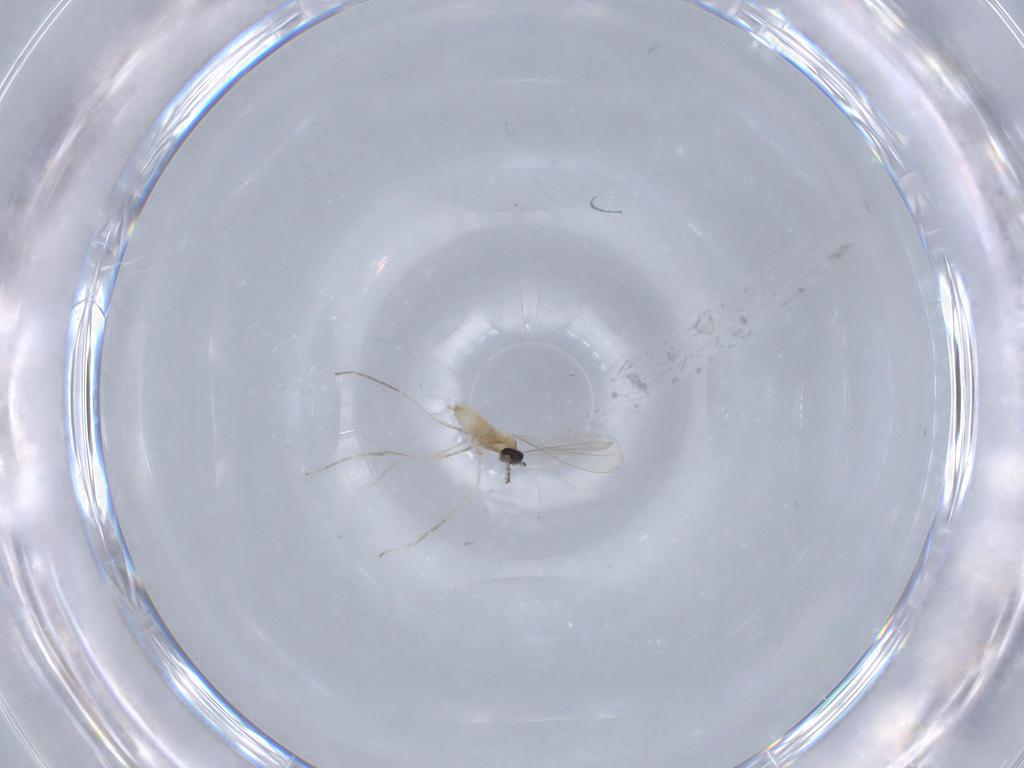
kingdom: Animalia
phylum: Arthropoda
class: Insecta
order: Diptera
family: Cecidomyiidae
